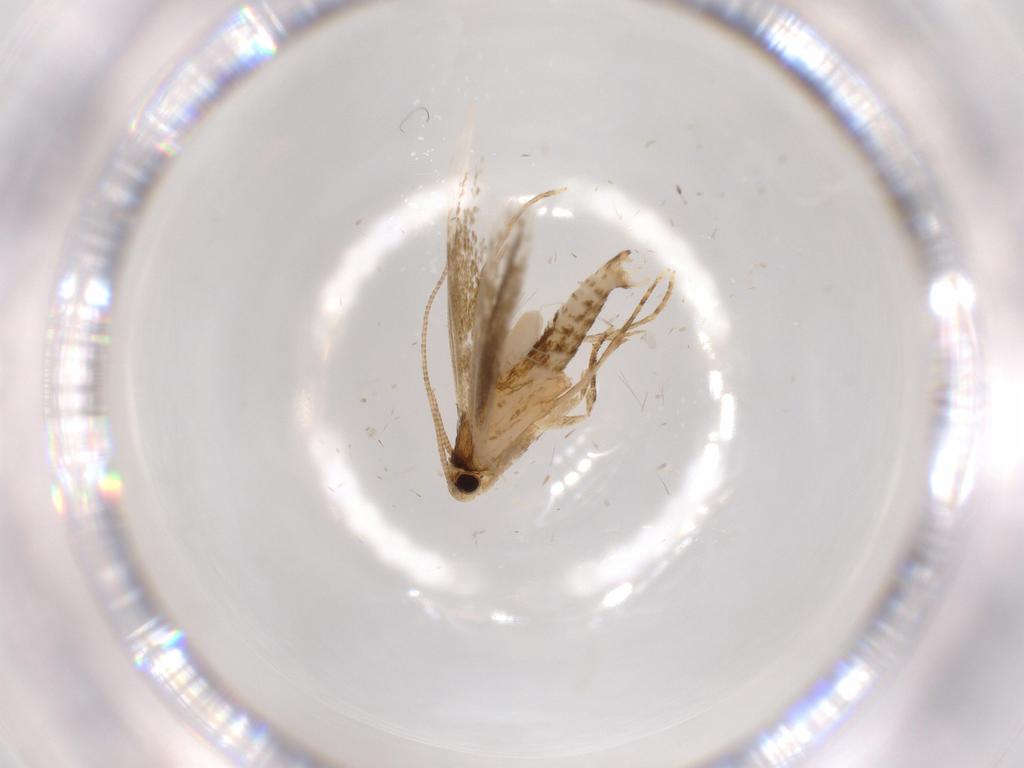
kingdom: Animalia
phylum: Arthropoda
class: Insecta
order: Lepidoptera
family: Tineidae
